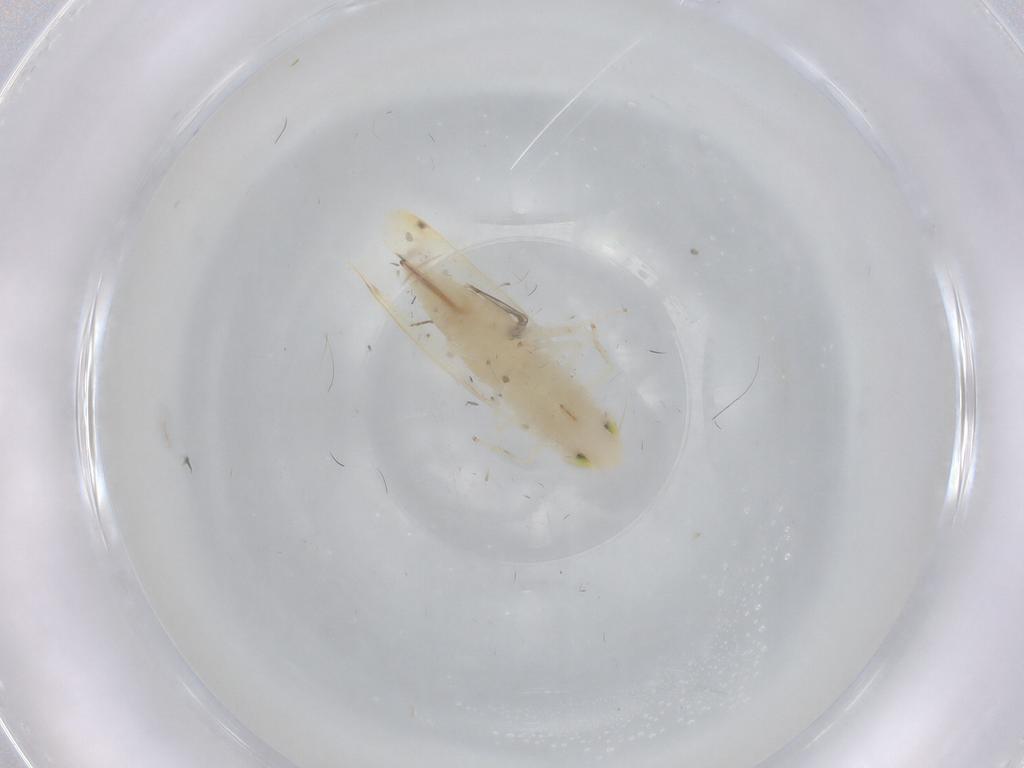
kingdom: Animalia
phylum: Arthropoda
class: Insecta
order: Hemiptera
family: Cicadellidae
